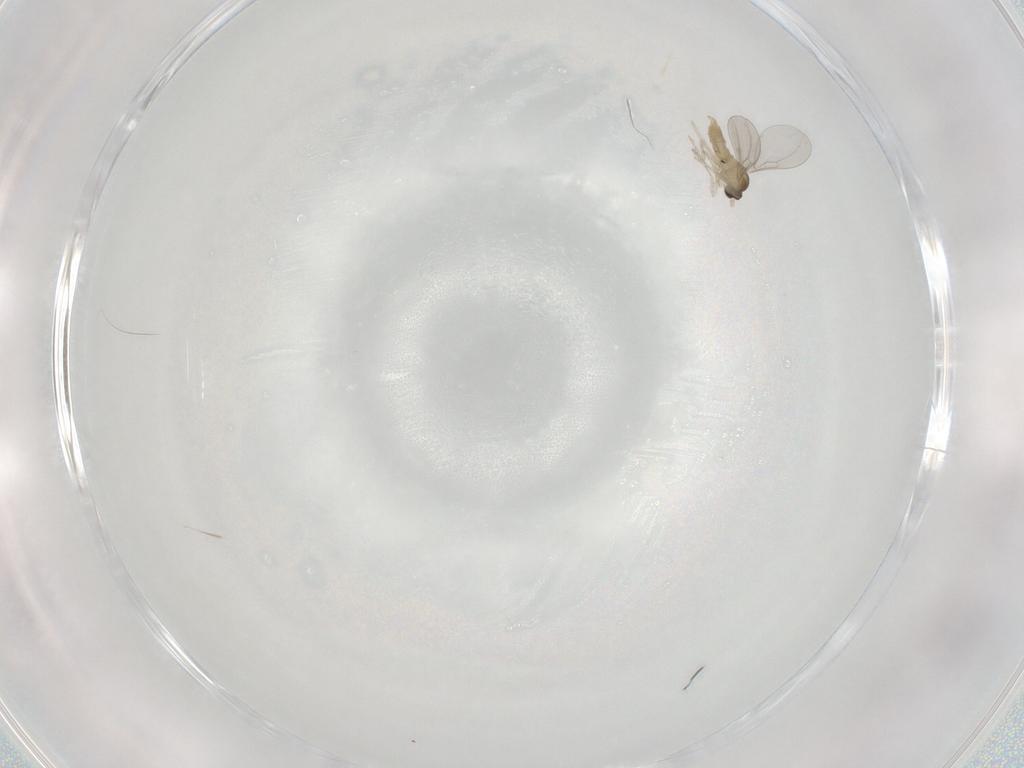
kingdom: Animalia
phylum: Arthropoda
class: Insecta
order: Diptera
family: Cecidomyiidae
